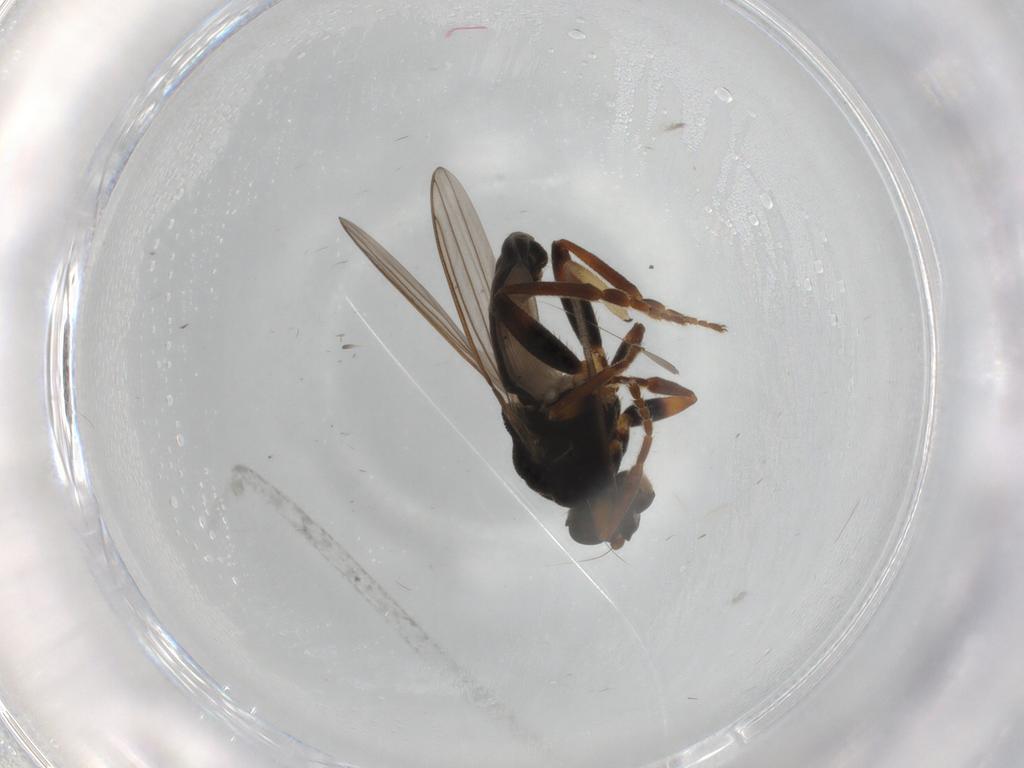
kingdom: Animalia
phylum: Arthropoda
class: Insecta
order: Diptera
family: Sphaeroceridae
